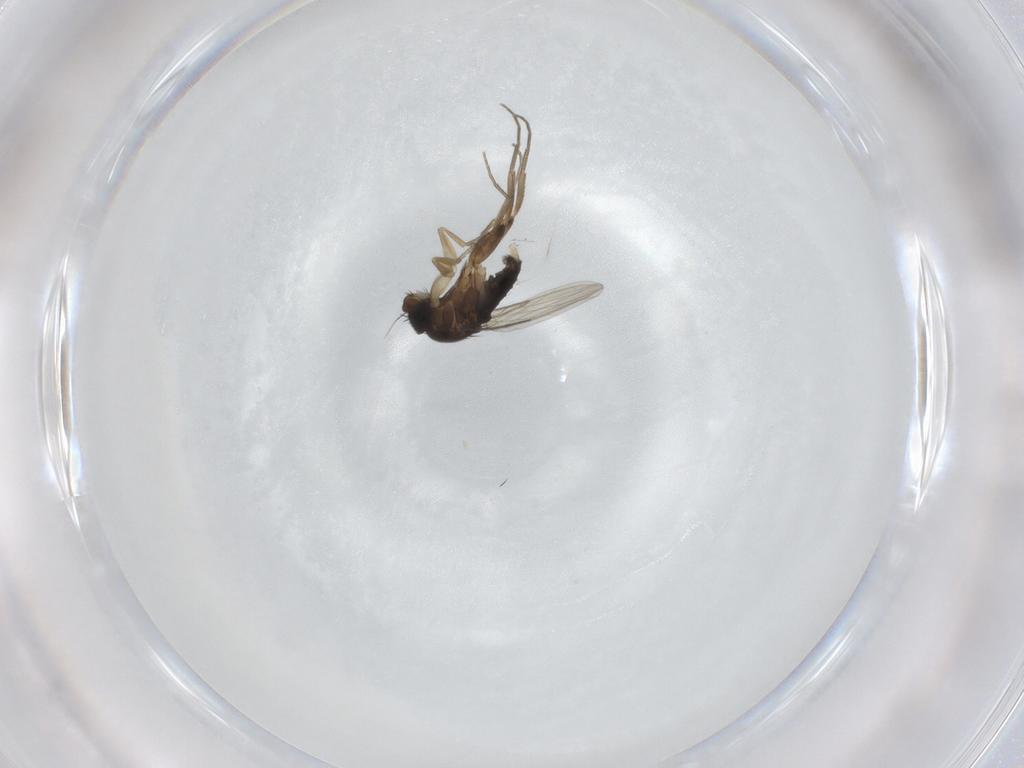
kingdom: Animalia
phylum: Arthropoda
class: Insecta
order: Diptera
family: Phoridae
